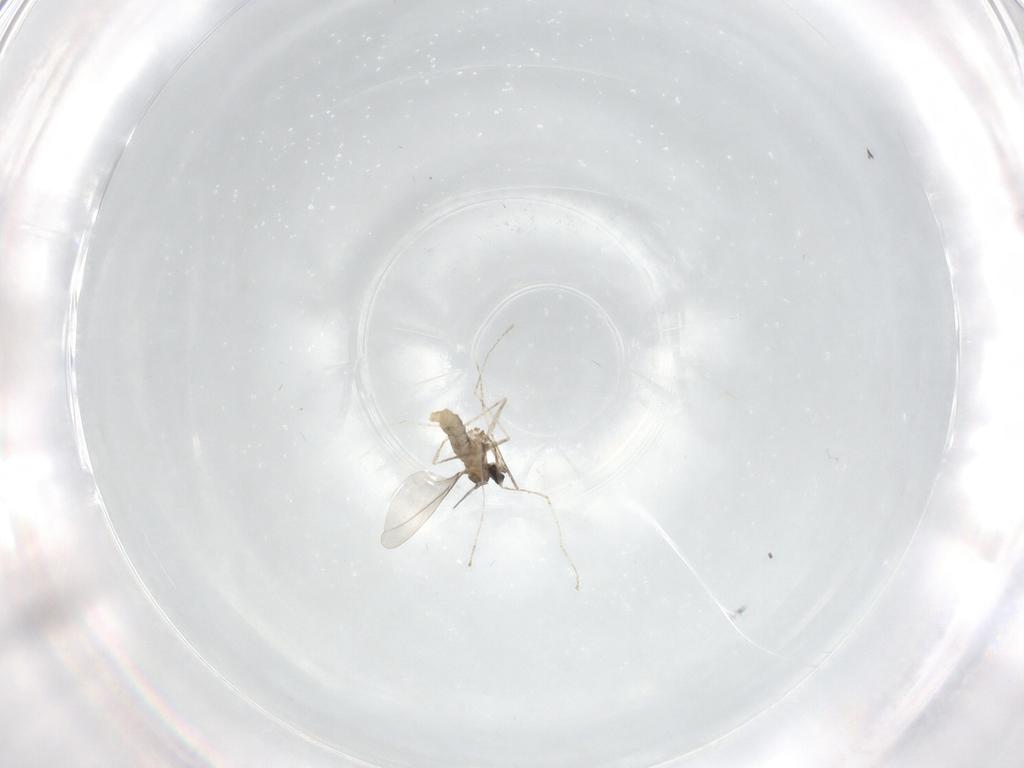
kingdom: Animalia
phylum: Arthropoda
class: Insecta
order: Diptera
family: Cecidomyiidae
